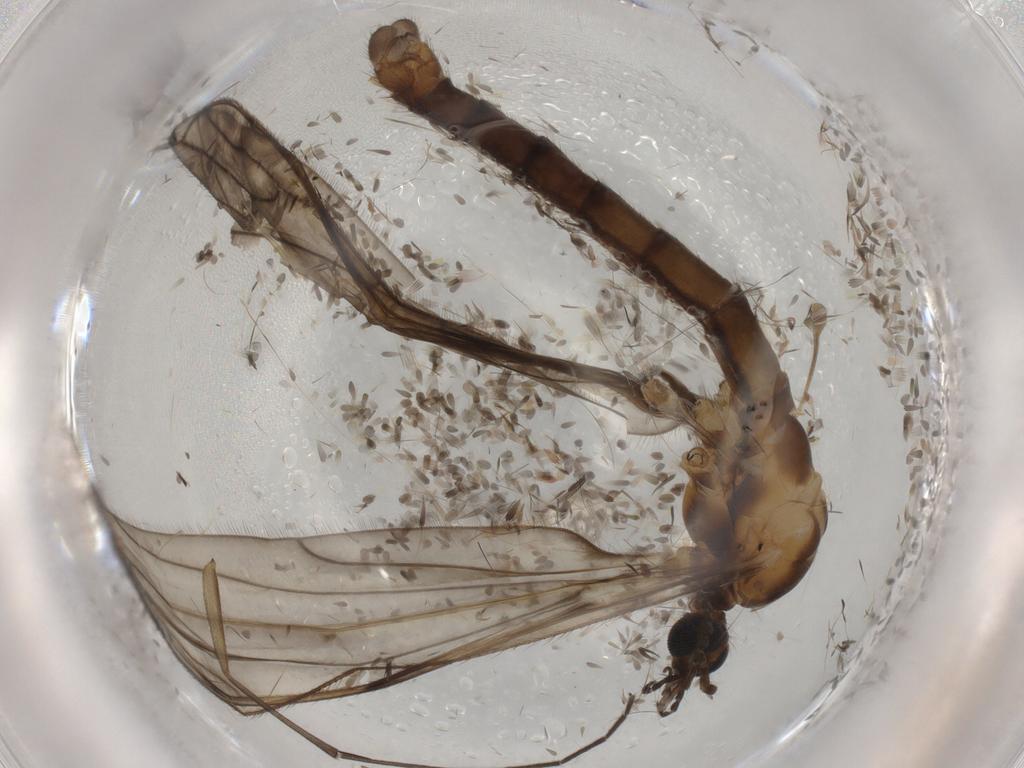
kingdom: Animalia
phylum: Arthropoda
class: Insecta
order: Diptera
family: Limoniidae
